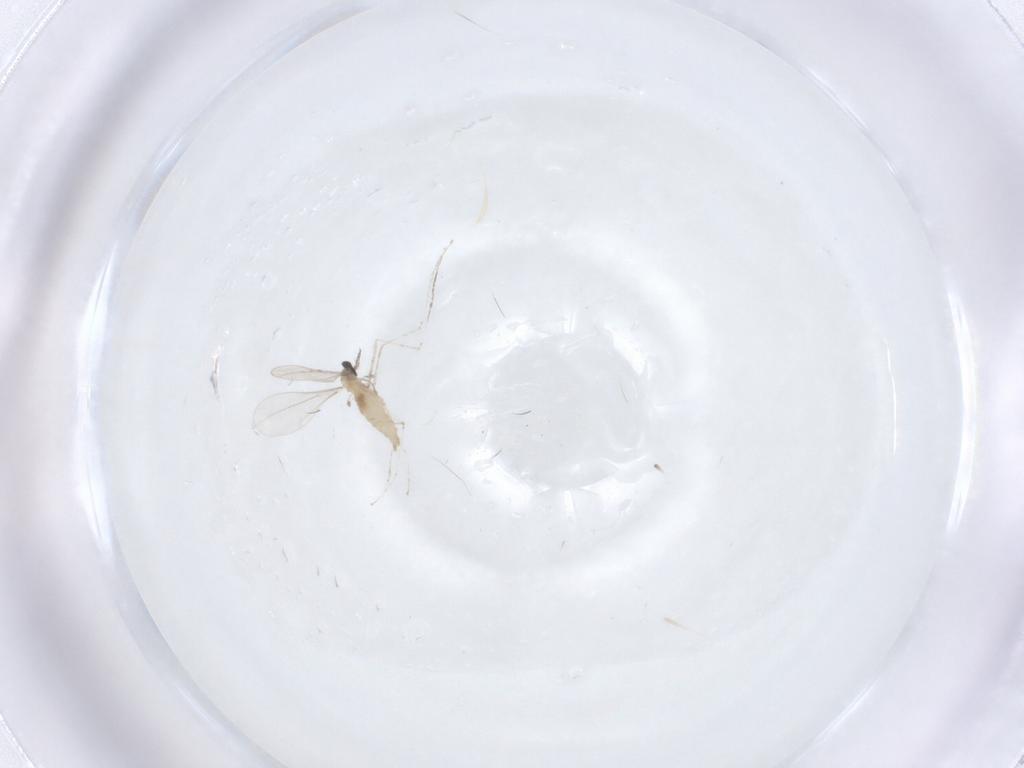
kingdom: Animalia
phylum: Arthropoda
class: Insecta
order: Diptera
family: Cecidomyiidae
